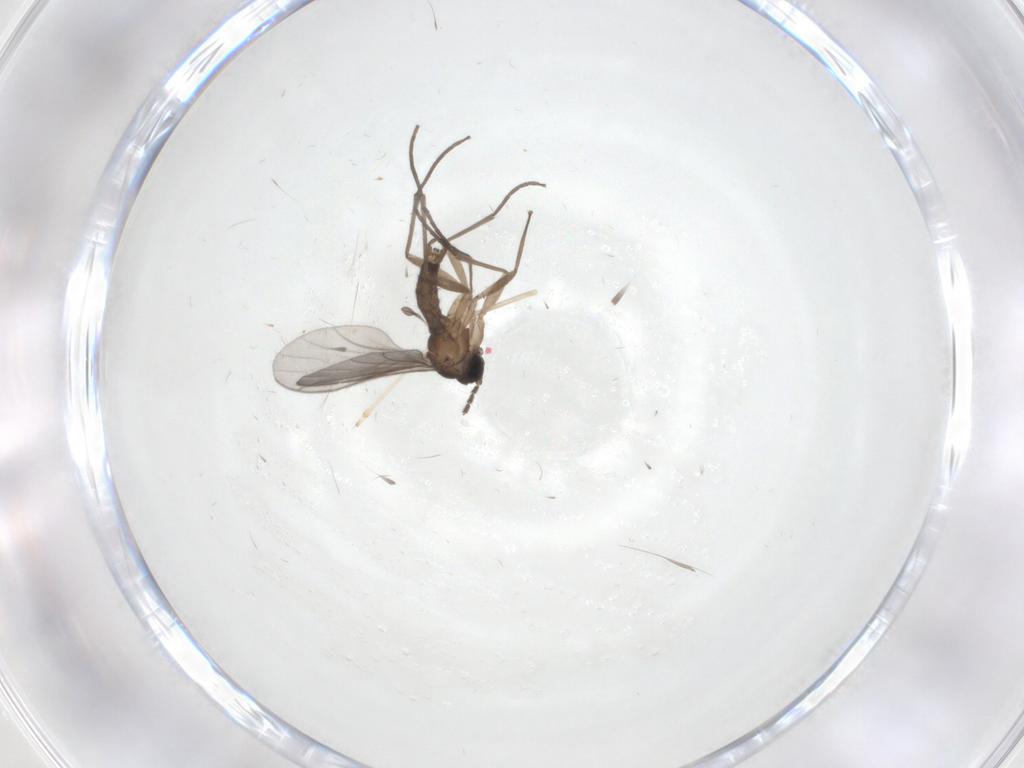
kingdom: Animalia
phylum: Arthropoda
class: Insecta
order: Diptera
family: Sciaridae
